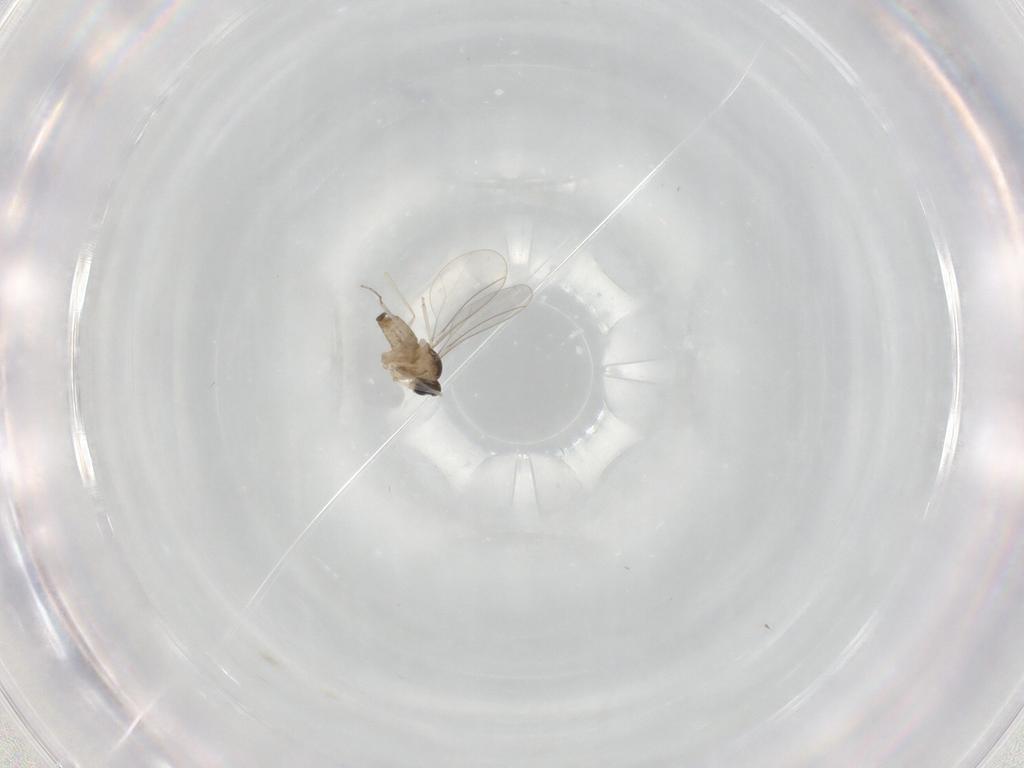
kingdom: Animalia
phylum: Arthropoda
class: Insecta
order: Diptera
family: Cecidomyiidae
